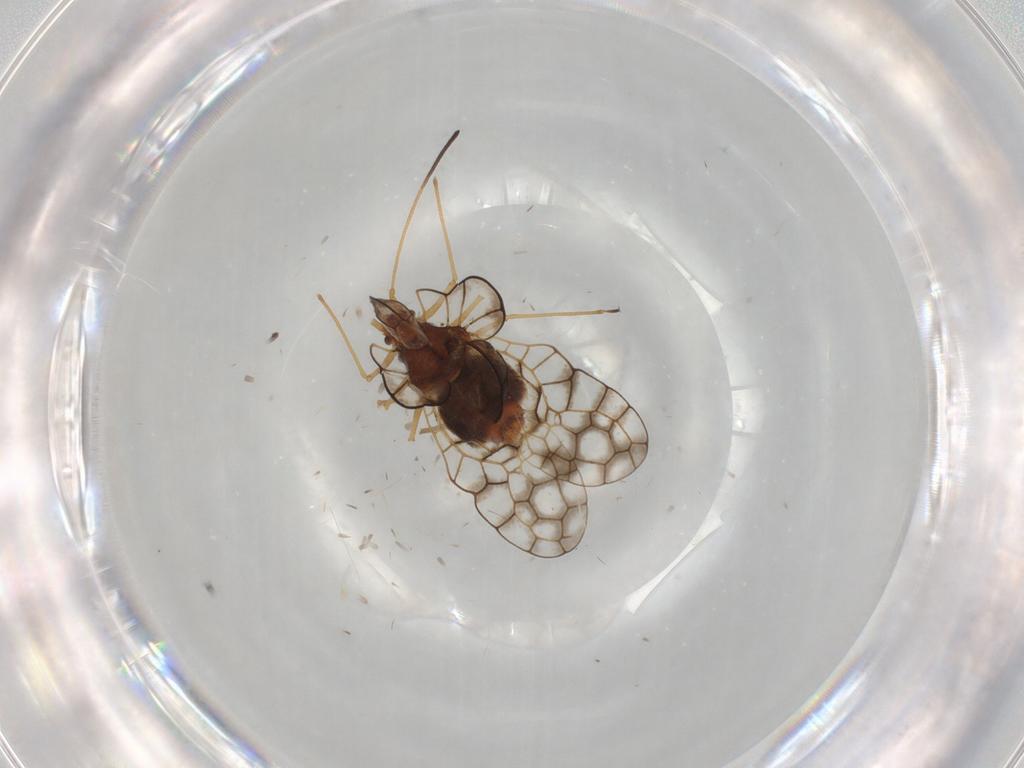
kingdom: Animalia
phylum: Arthropoda
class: Insecta
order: Hemiptera
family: Tingidae
